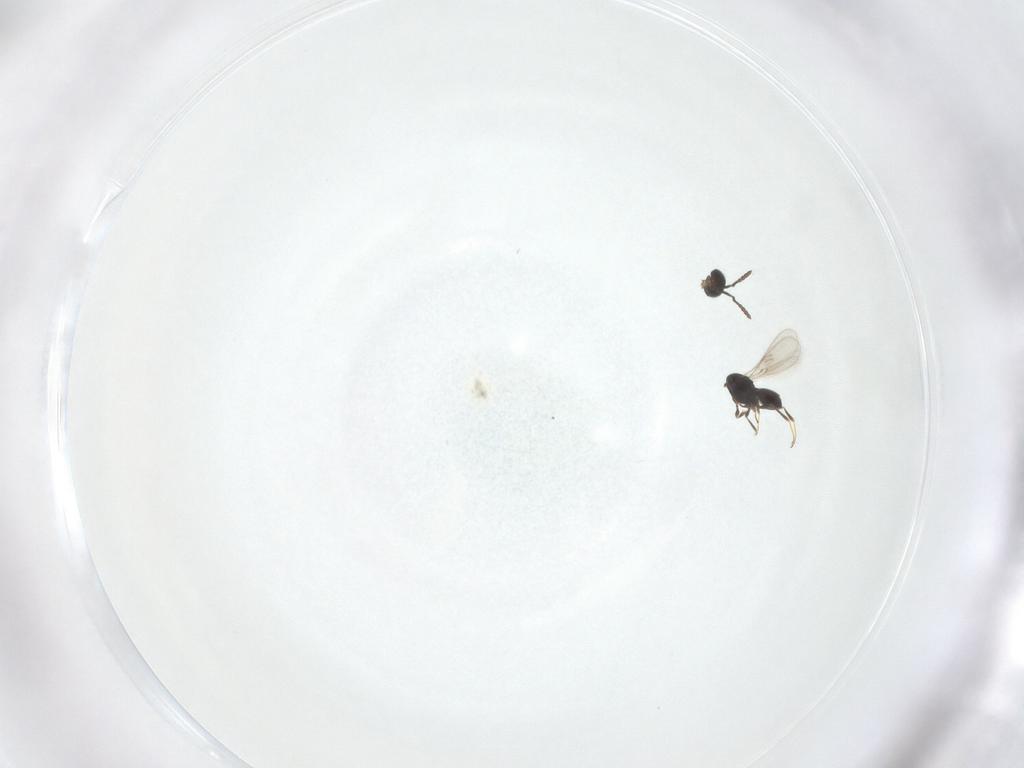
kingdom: Animalia
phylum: Arthropoda
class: Insecta
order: Hymenoptera
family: Scelionidae
